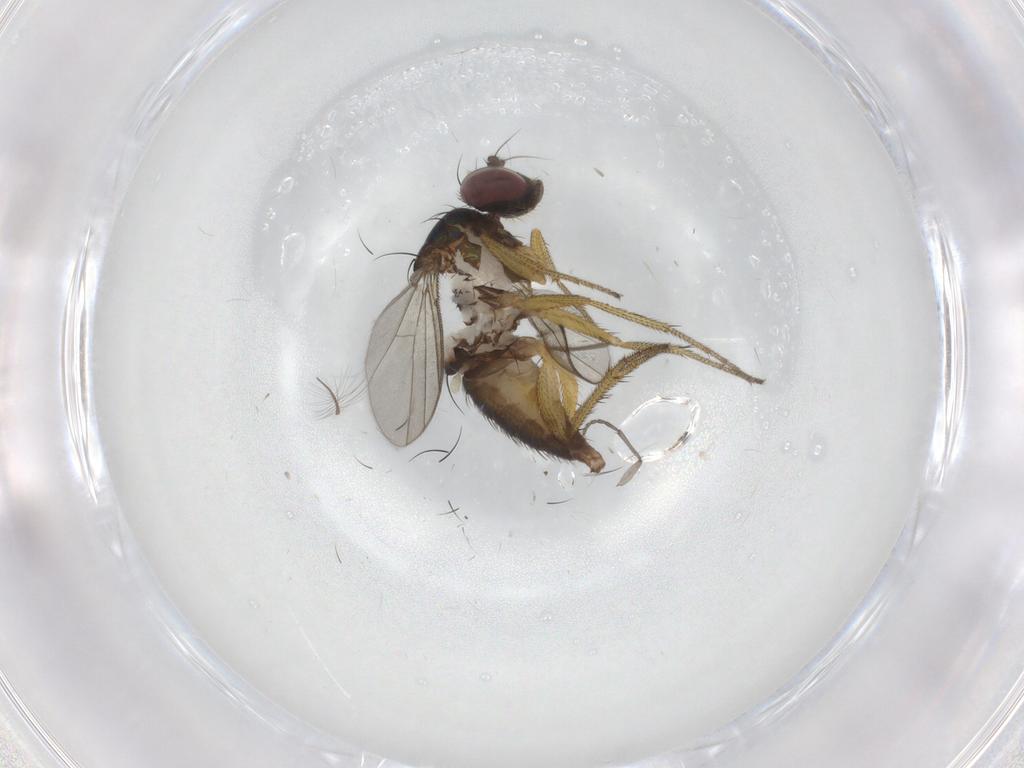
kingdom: Animalia
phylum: Arthropoda
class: Insecta
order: Diptera
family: Dolichopodidae
